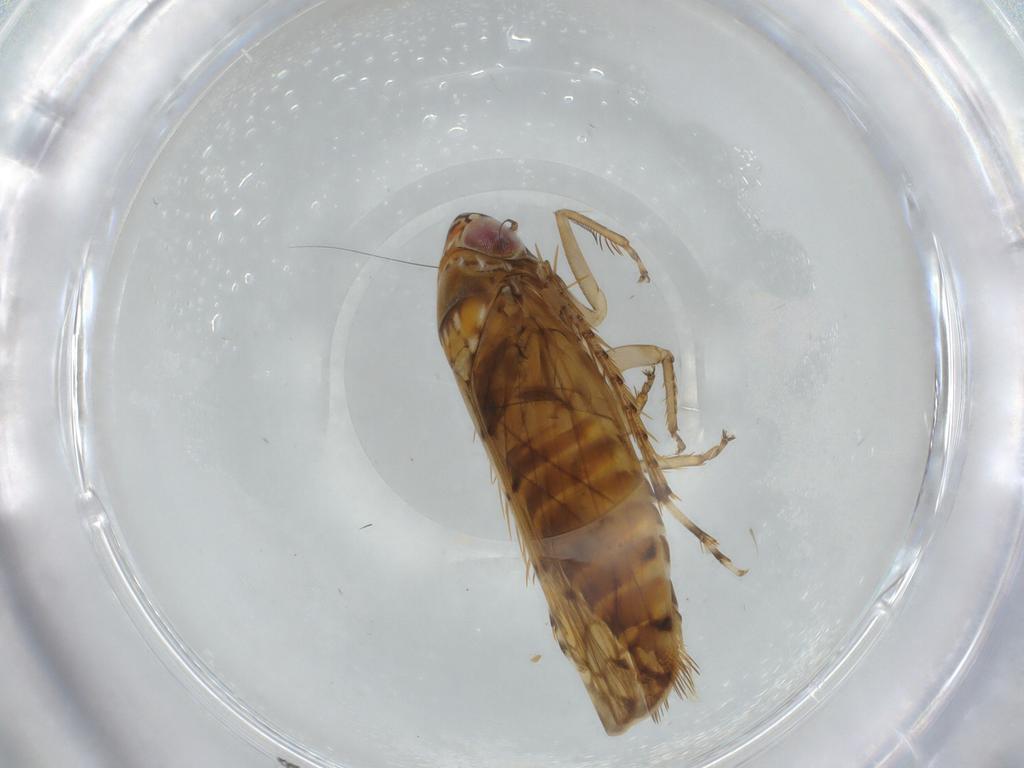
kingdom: Animalia
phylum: Arthropoda
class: Insecta
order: Hemiptera
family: Cicadellidae
